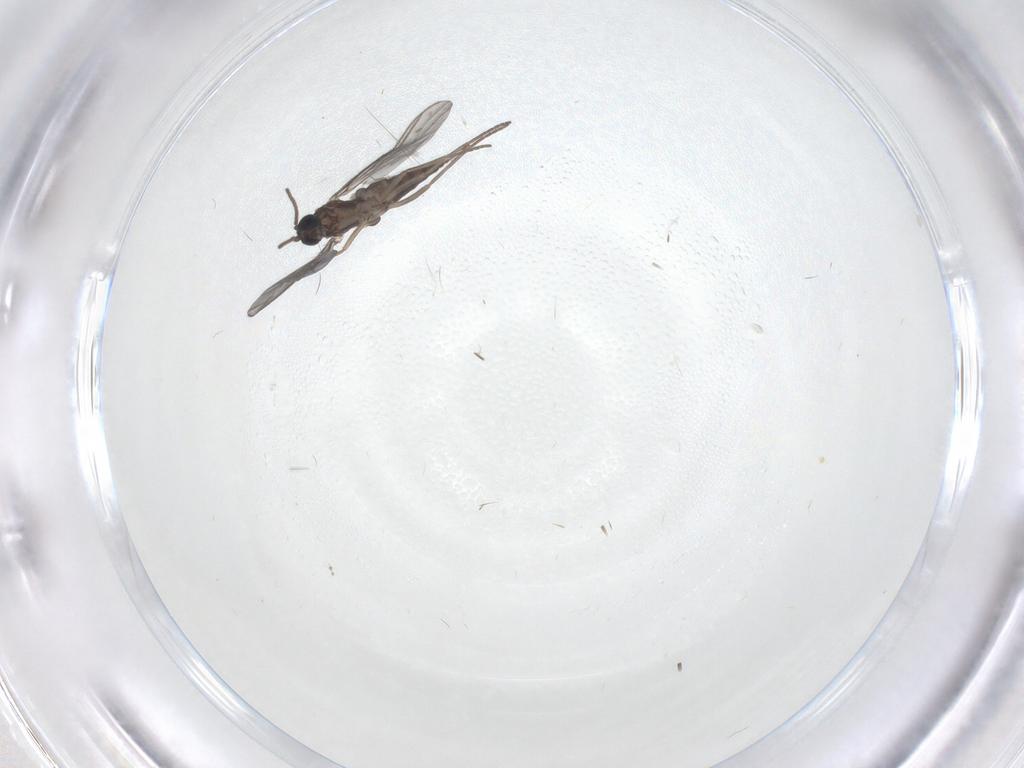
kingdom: Animalia
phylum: Arthropoda
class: Insecta
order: Diptera
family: Sciaridae
